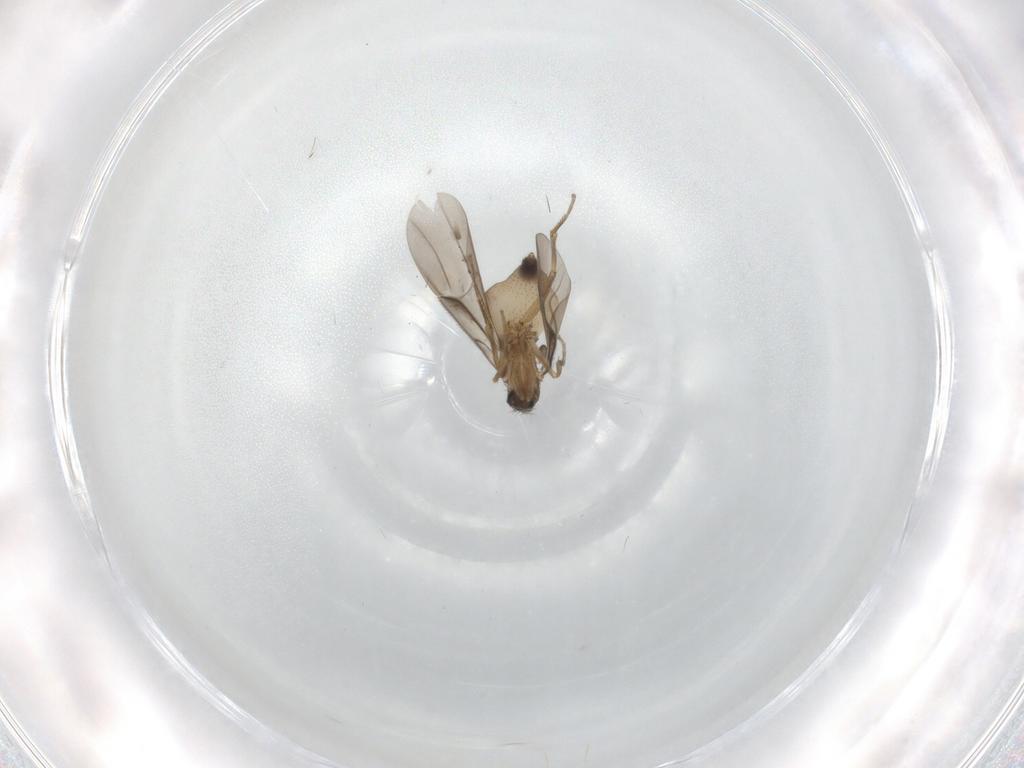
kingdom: Animalia
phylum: Arthropoda
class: Insecta
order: Diptera
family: Phoridae
